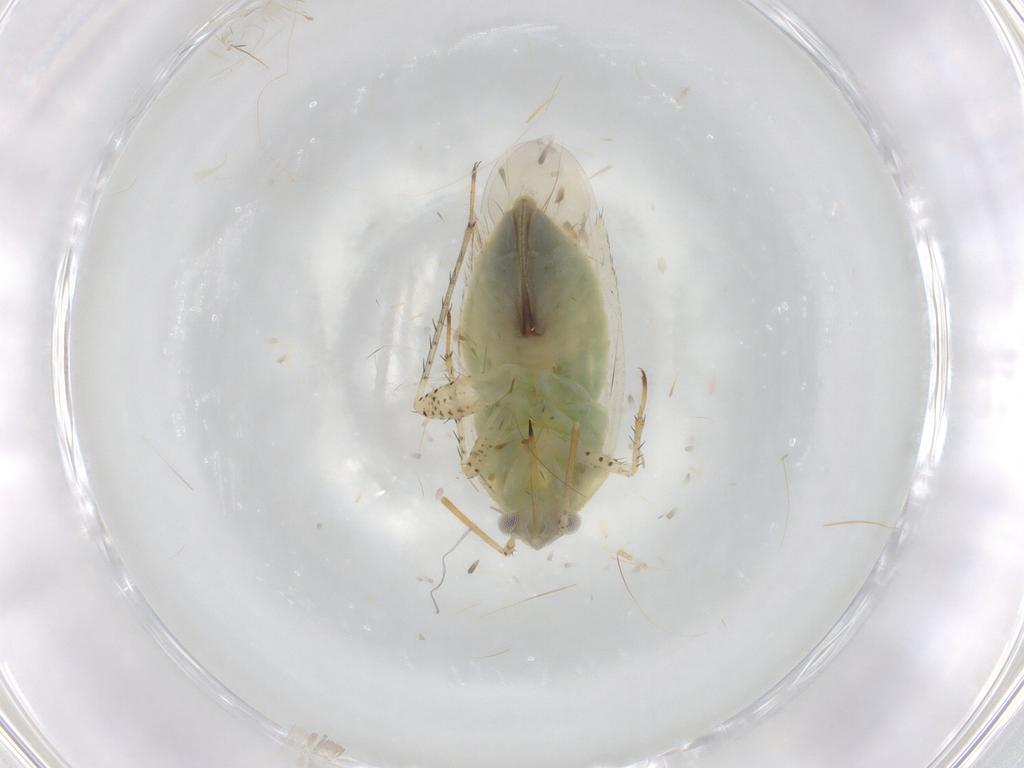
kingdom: Animalia
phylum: Arthropoda
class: Insecta
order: Hemiptera
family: Miridae
